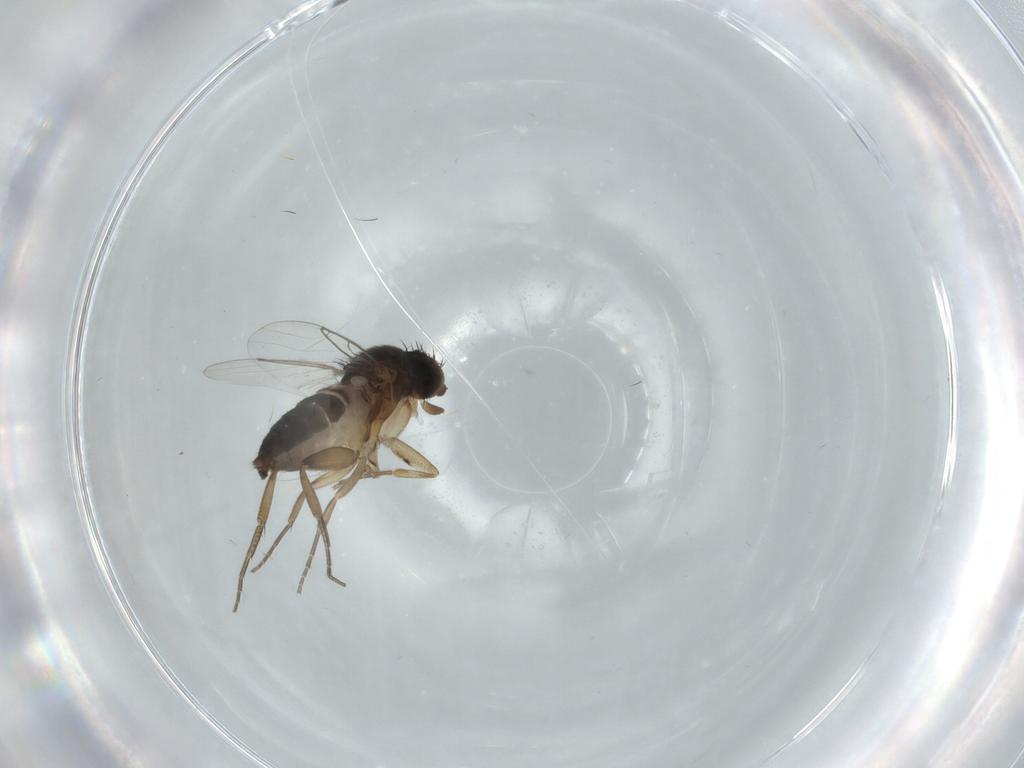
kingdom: Animalia
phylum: Arthropoda
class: Insecta
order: Diptera
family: Phoridae
